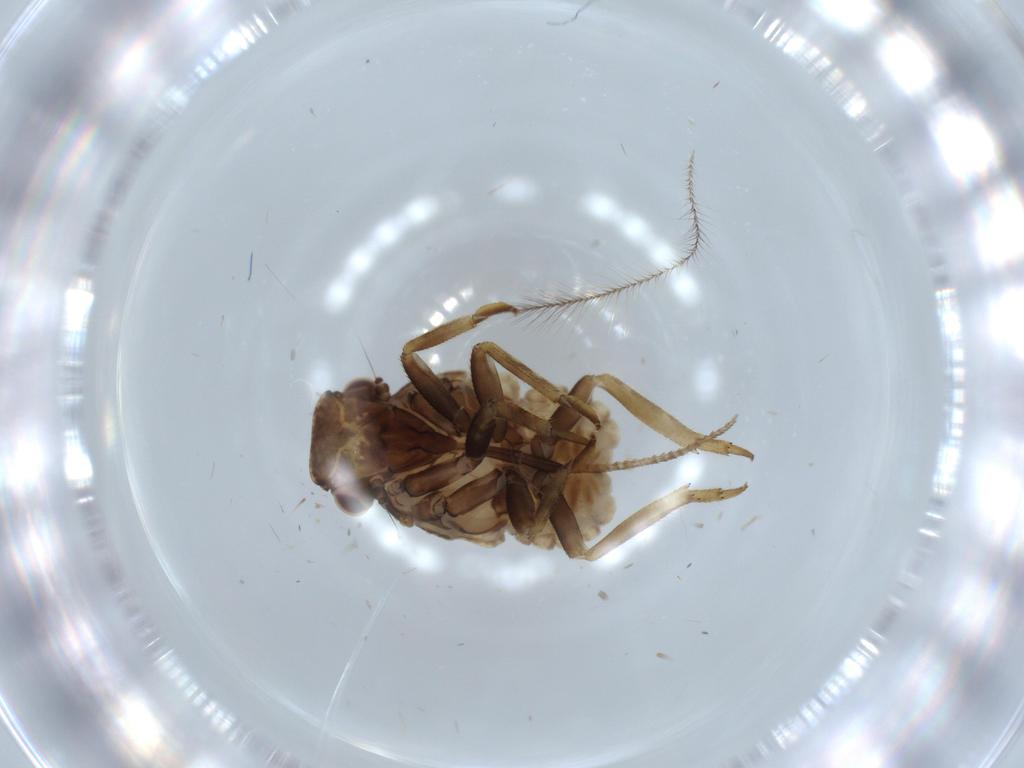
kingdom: Animalia
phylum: Arthropoda
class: Insecta
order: Hemiptera
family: Fulgoridae
